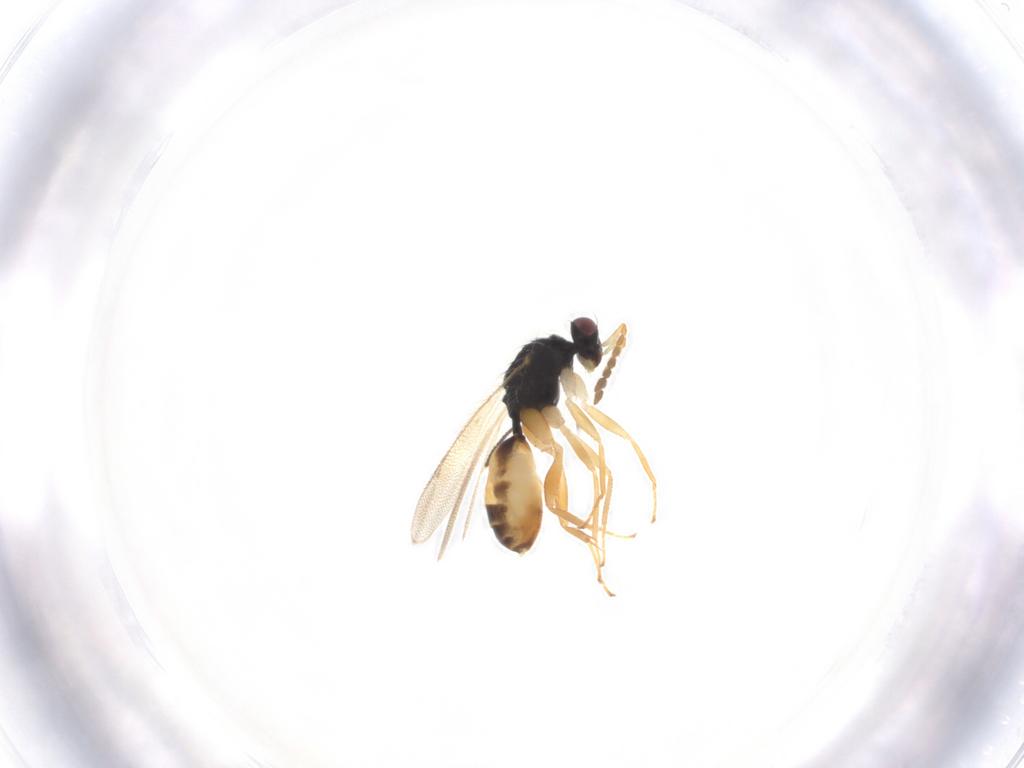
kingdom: Animalia
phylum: Arthropoda
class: Insecta
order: Hymenoptera
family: Eulophidae
